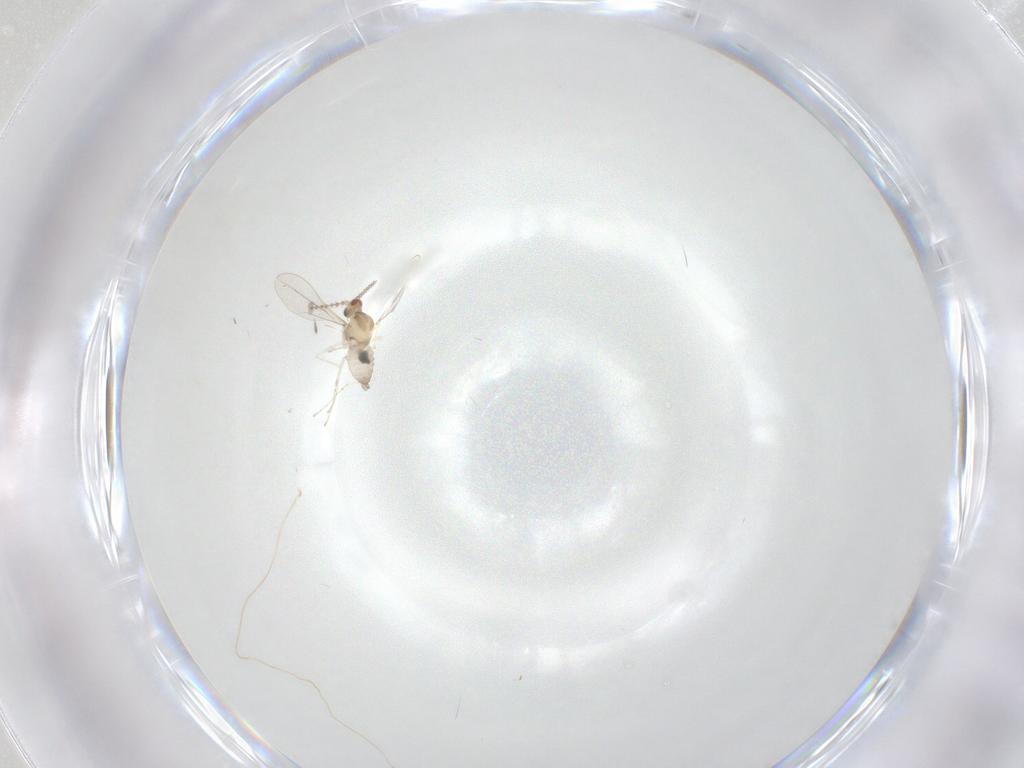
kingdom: Animalia
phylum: Arthropoda
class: Insecta
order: Diptera
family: Cecidomyiidae
